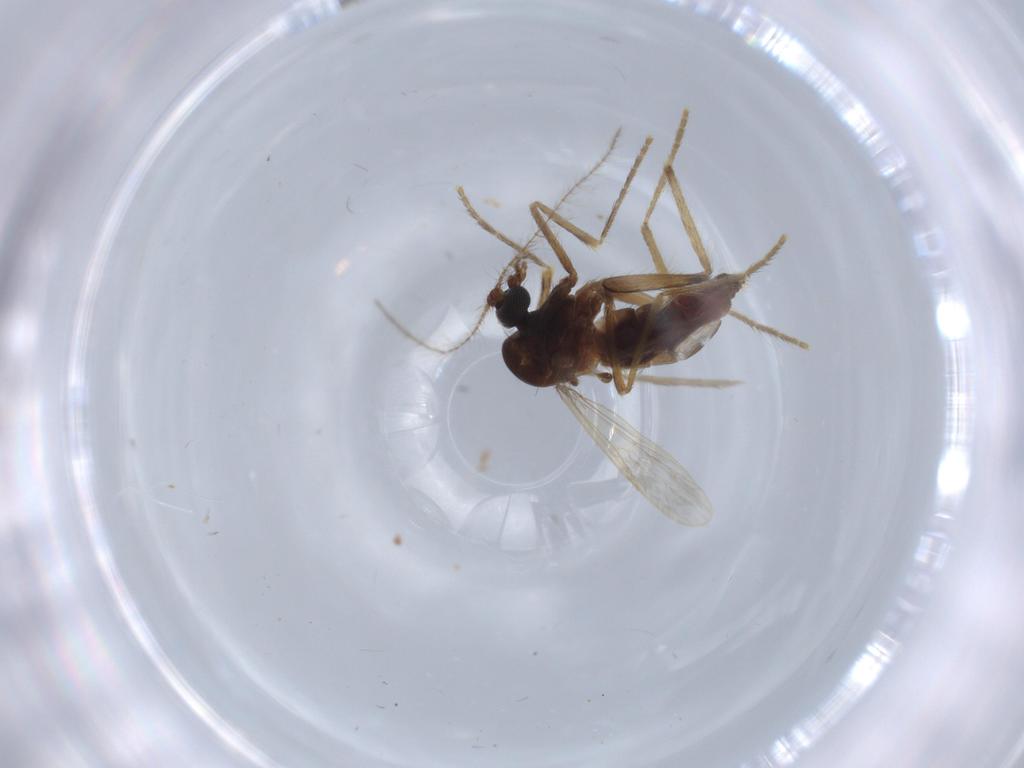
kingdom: Animalia
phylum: Arthropoda
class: Insecta
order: Diptera
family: Corethrellidae
